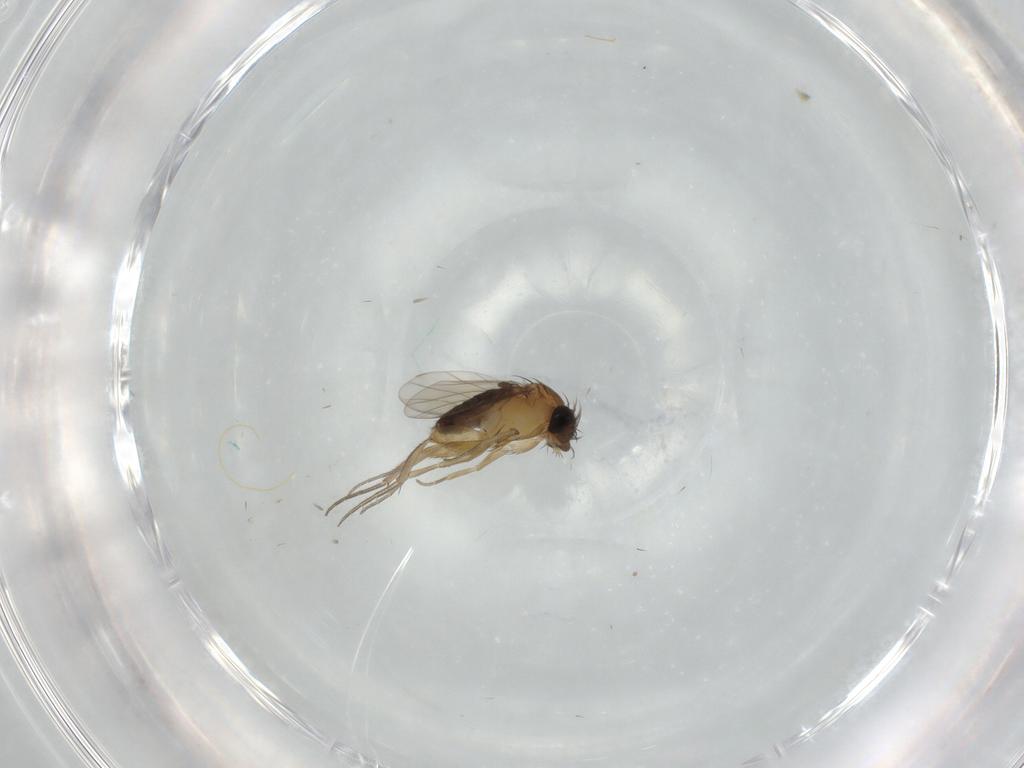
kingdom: Animalia
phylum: Arthropoda
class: Insecta
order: Diptera
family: Phoridae
